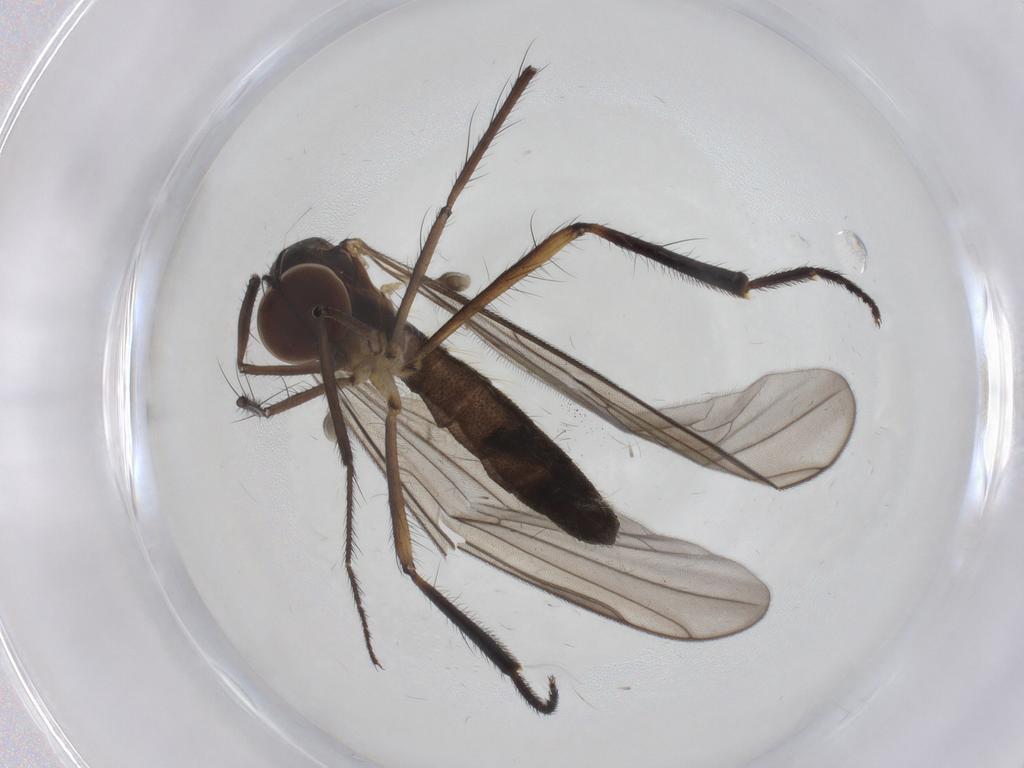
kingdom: Animalia
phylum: Arthropoda
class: Insecta
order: Diptera
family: Hybotidae
